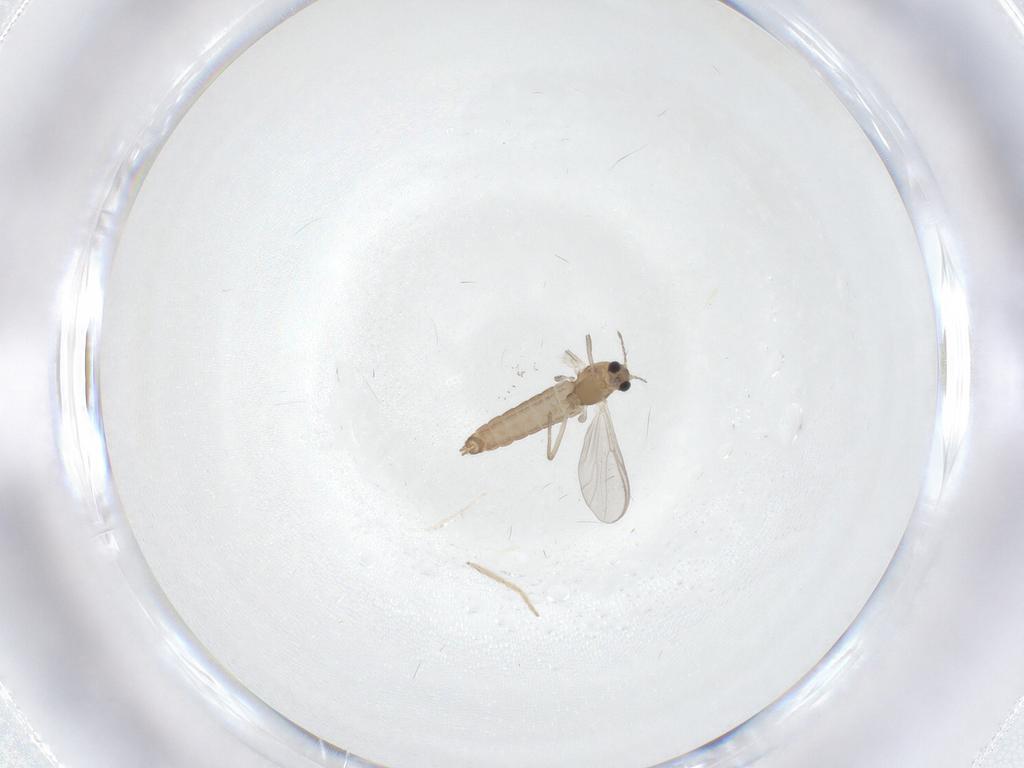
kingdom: Animalia
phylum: Arthropoda
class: Insecta
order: Diptera
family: Chironomidae
